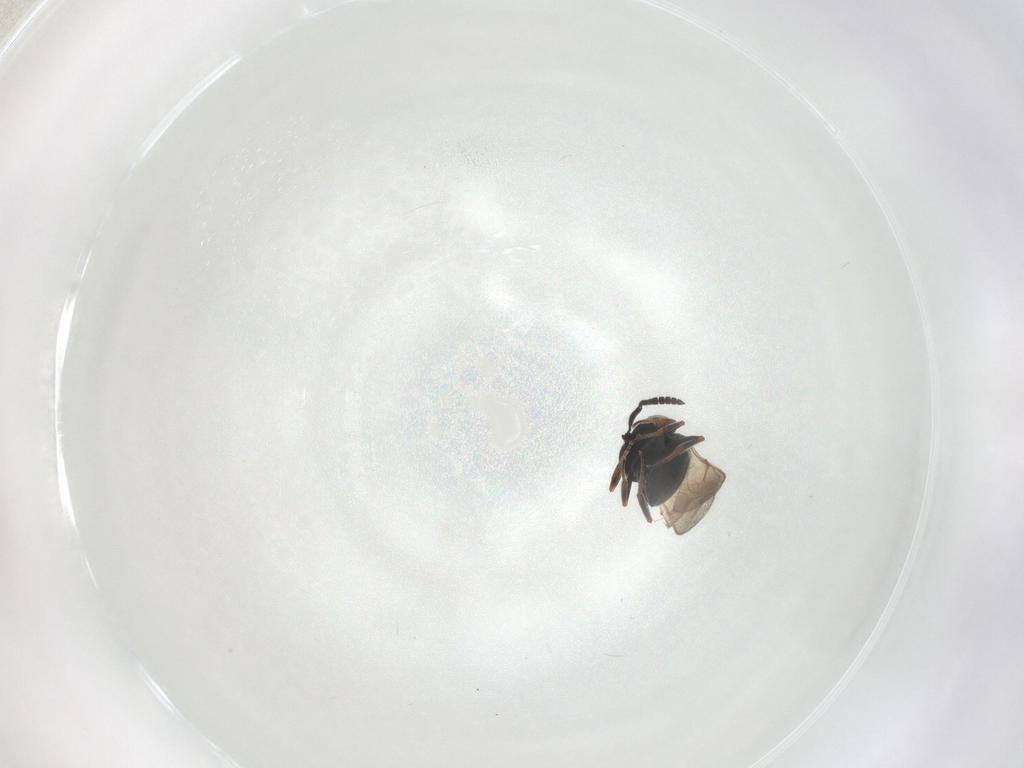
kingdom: Animalia
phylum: Arthropoda
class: Insecta
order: Hymenoptera
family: Scelionidae
